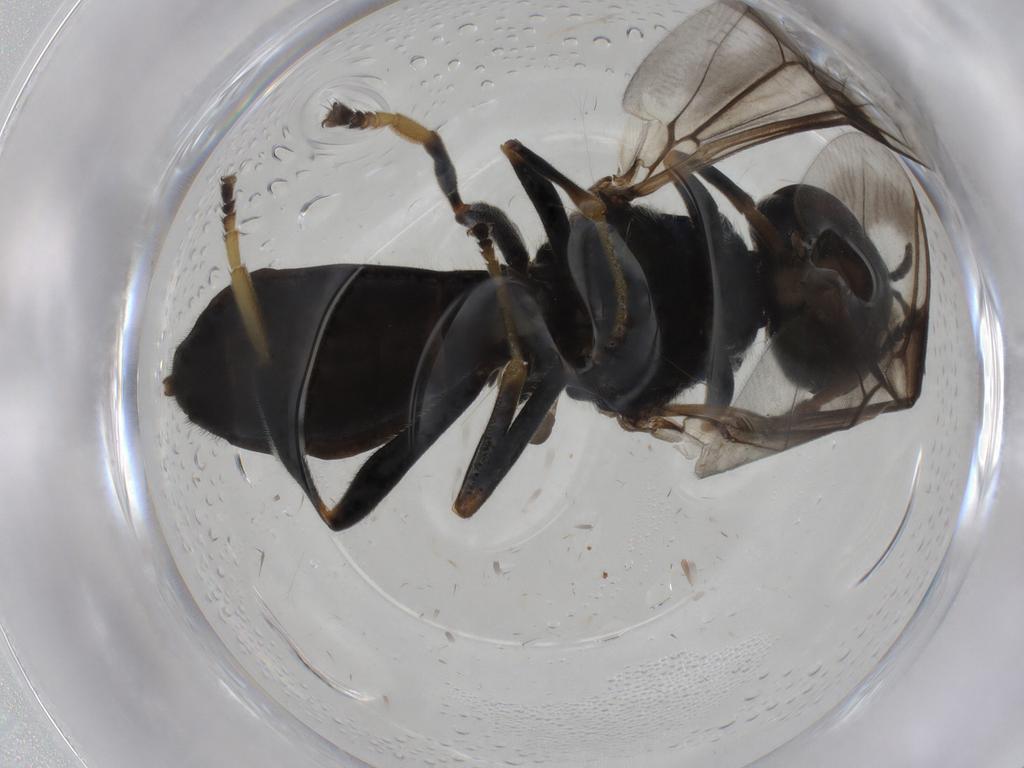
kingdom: Animalia
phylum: Arthropoda
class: Insecta
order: Diptera
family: Stratiomyidae
